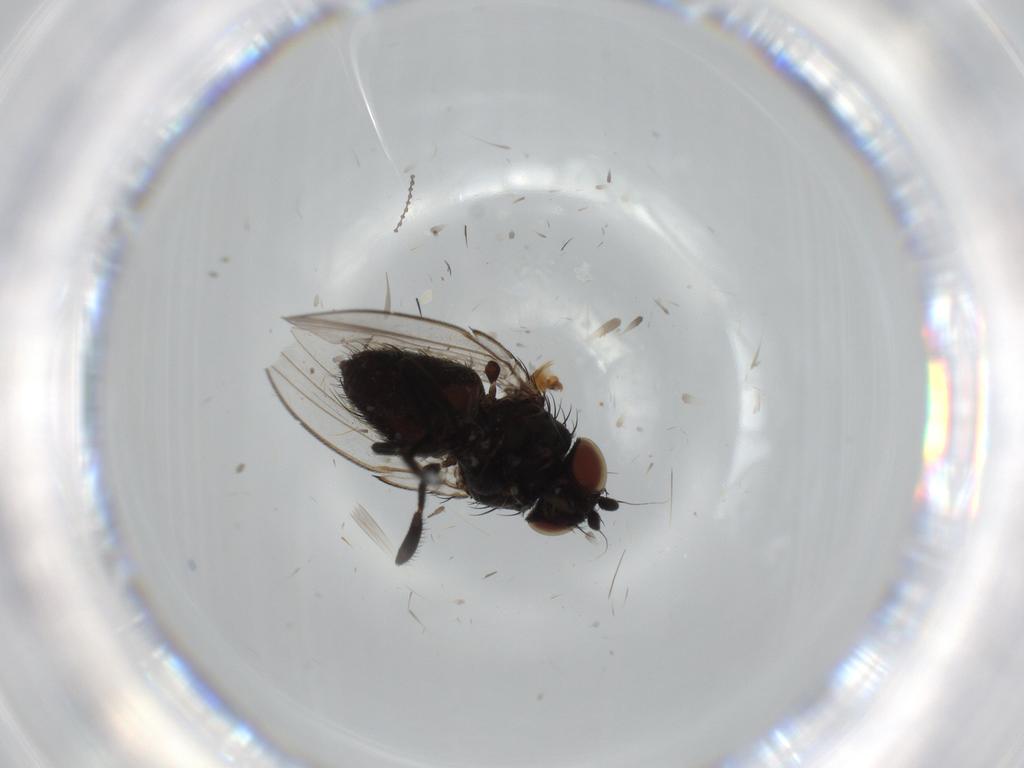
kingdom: Animalia
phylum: Arthropoda
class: Insecta
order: Diptera
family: Phoridae
